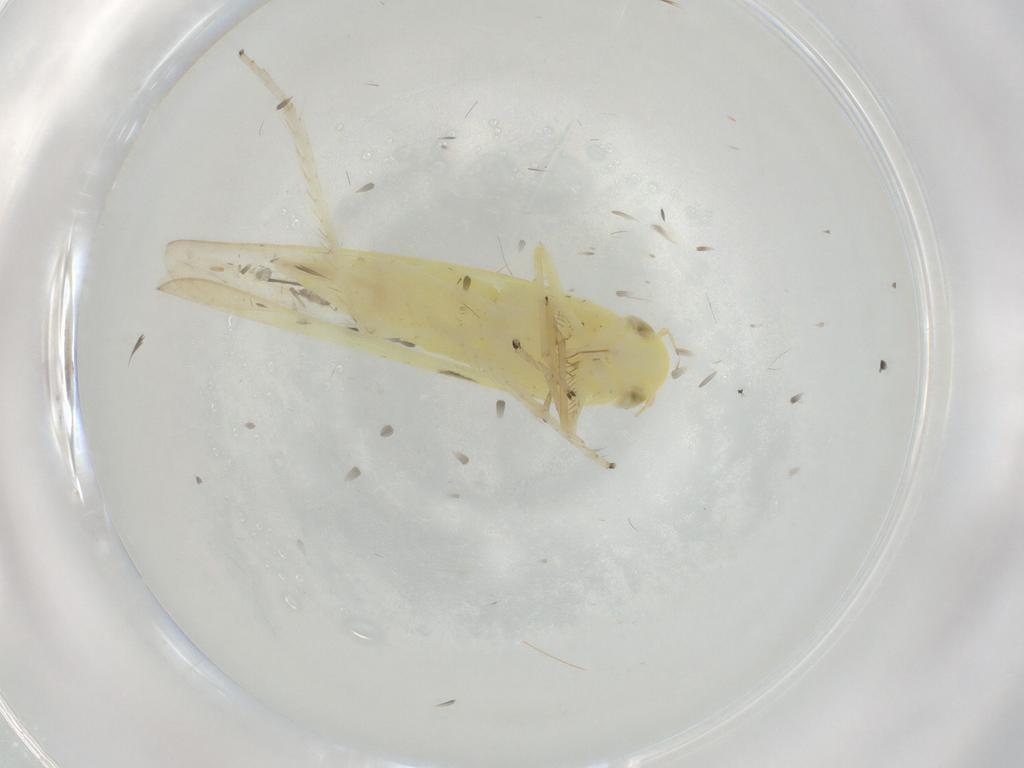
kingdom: Animalia
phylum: Arthropoda
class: Insecta
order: Hemiptera
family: Cicadellidae
